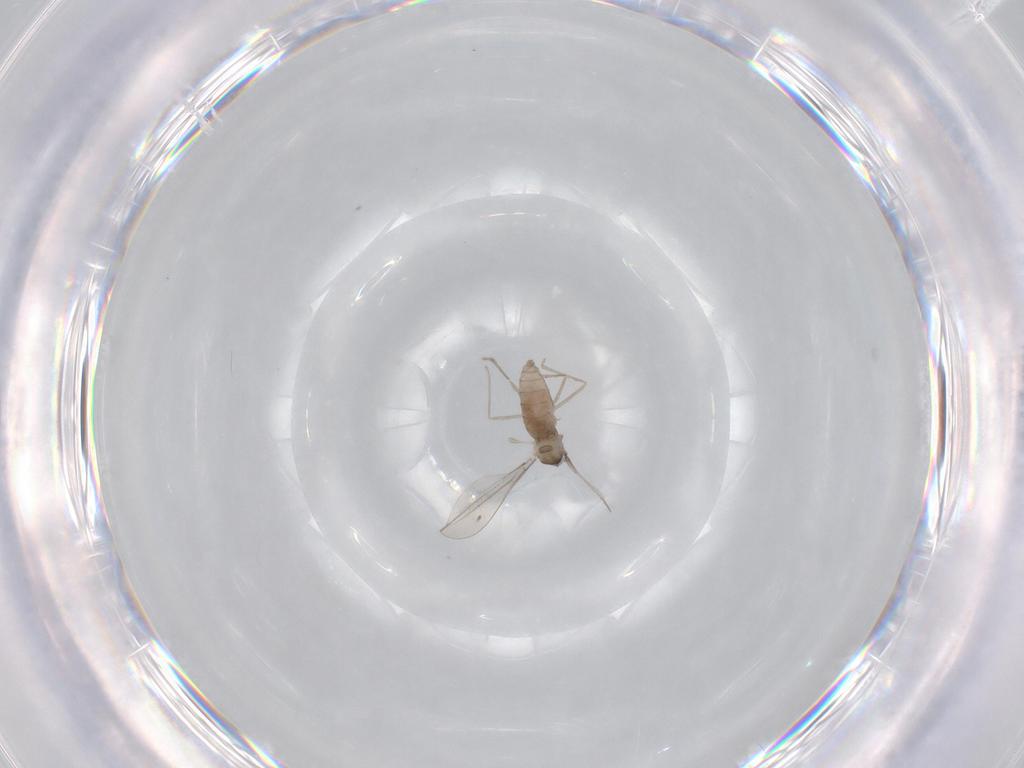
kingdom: Animalia
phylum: Arthropoda
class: Insecta
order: Diptera
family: Cecidomyiidae
